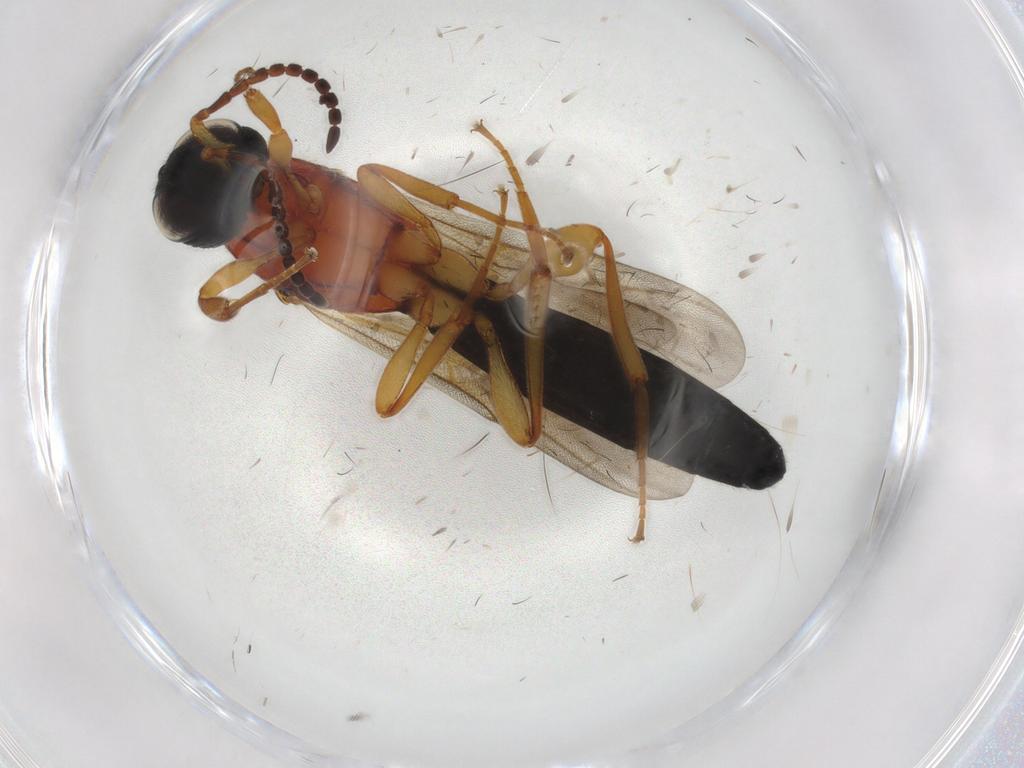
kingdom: Animalia
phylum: Arthropoda
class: Insecta
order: Hymenoptera
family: Scelionidae
